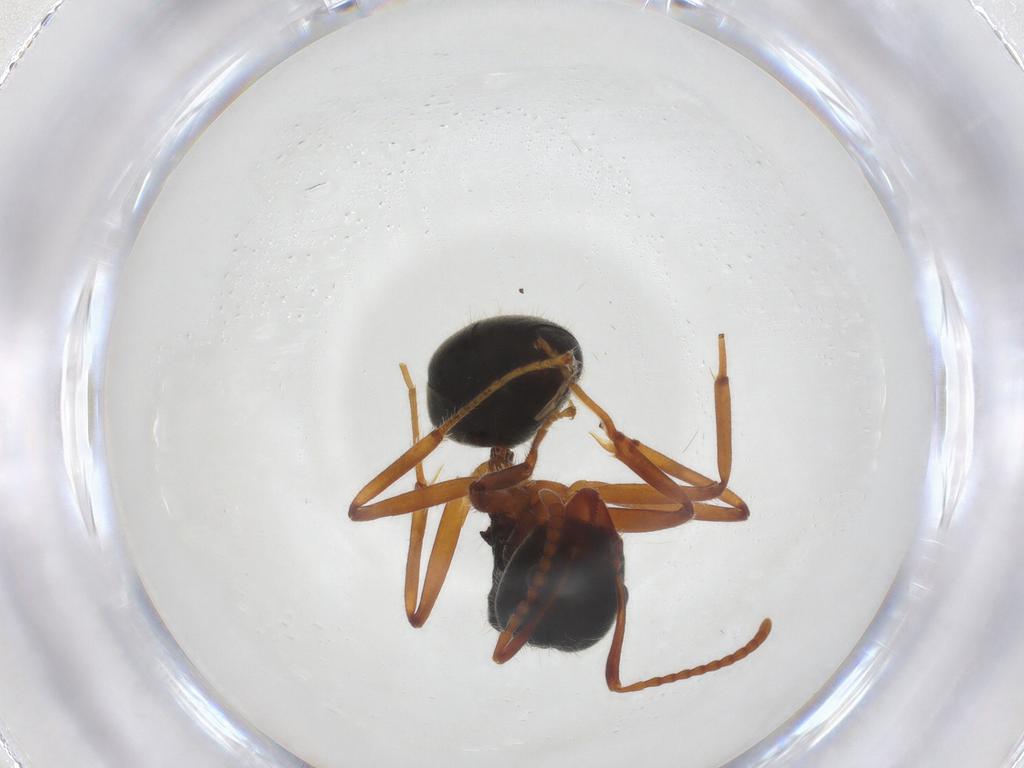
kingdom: Animalia
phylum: Arthropoda
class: Insecta
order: Hymenoptera
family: Formicidae
